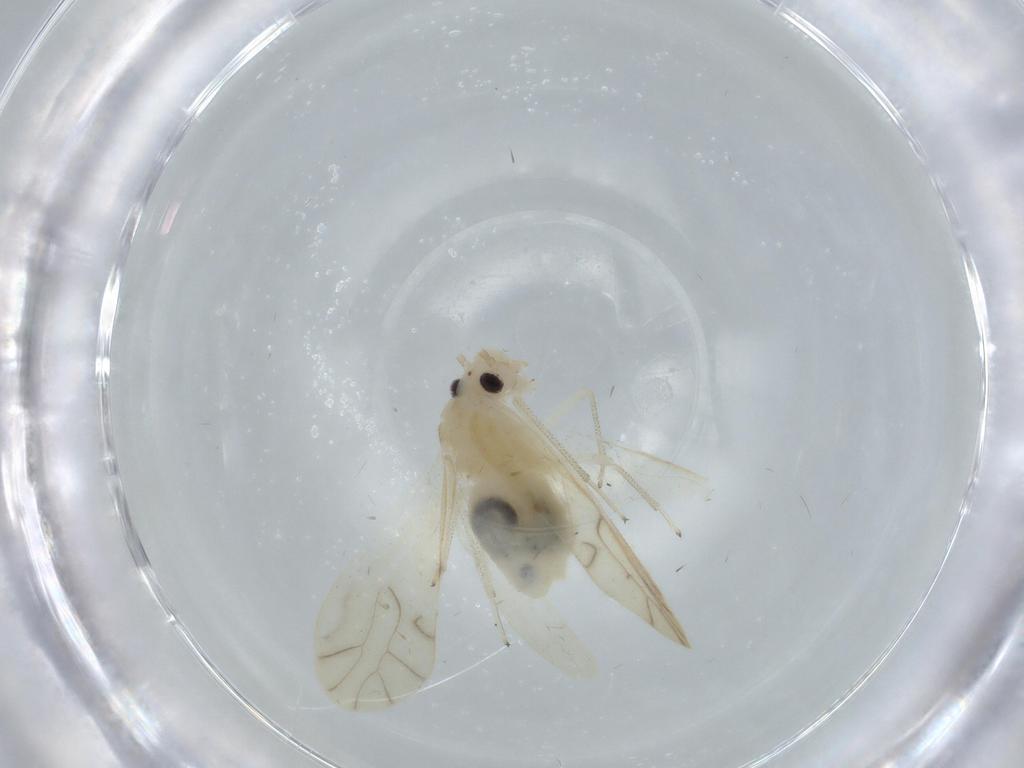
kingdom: Animalia
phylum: Arthropoda
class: Insecta
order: Psocodea
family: Caeciliusidae
